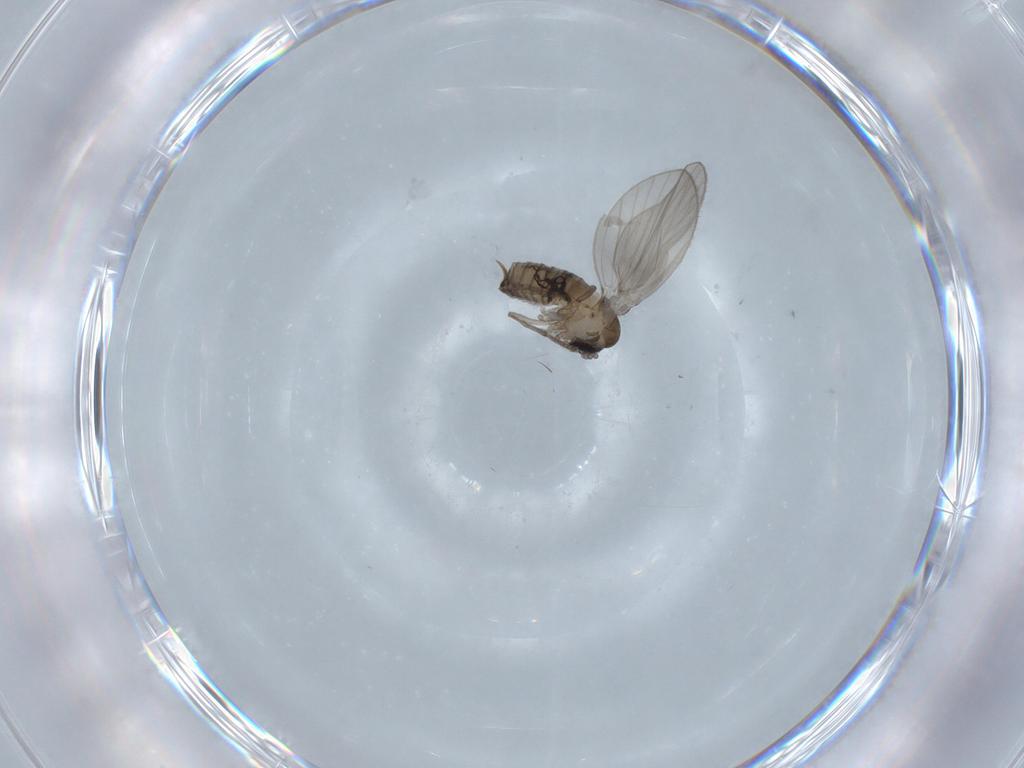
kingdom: Animalia
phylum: Arthropoda
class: Insecta
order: Diptera
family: Psychodidae
